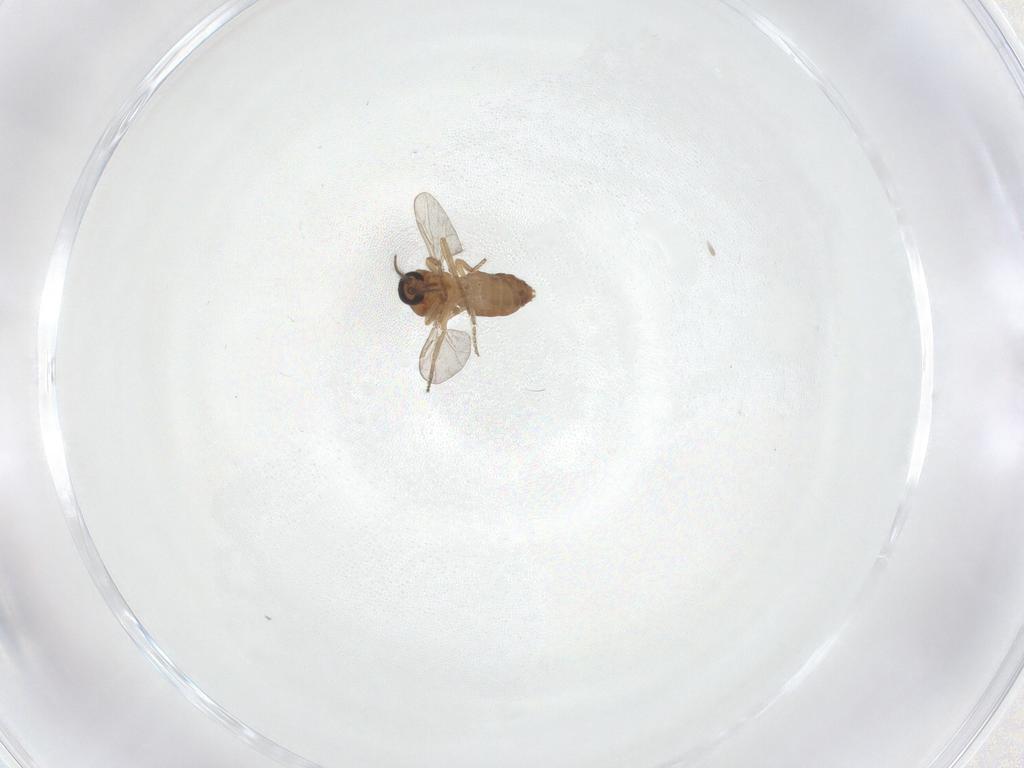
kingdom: Animalia
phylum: Arthropoda
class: Insecta
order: Diptera
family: Ceratopogonidae
